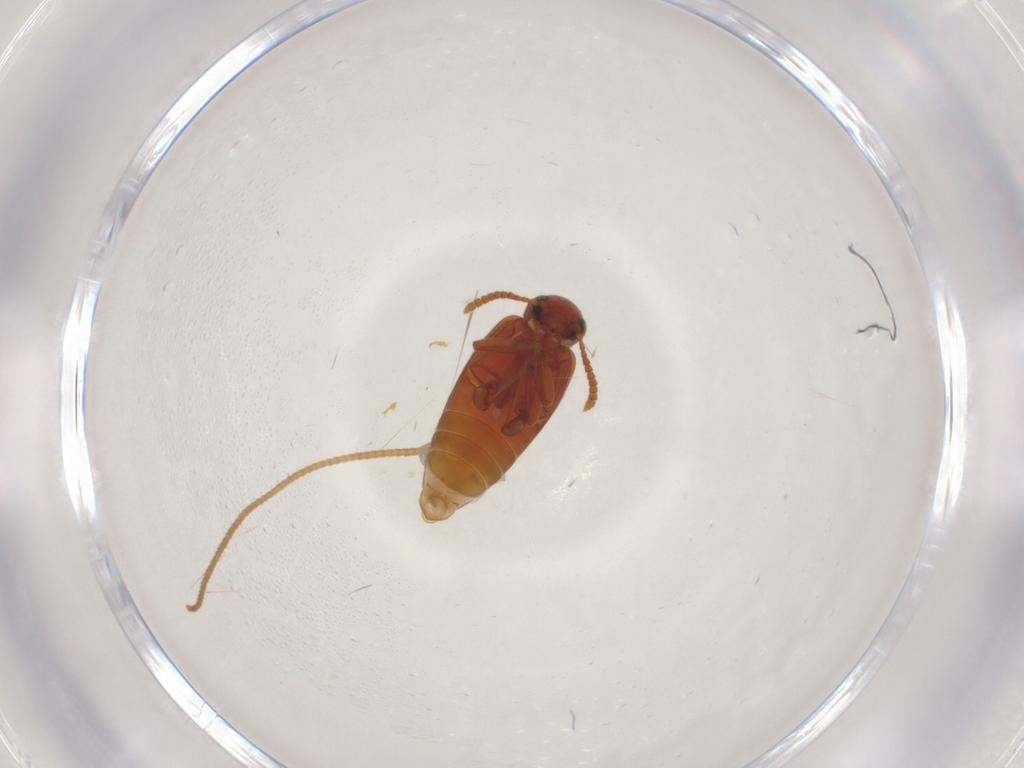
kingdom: Animalia
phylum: Arthropoda
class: Insecta
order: Coleoptera
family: Aderidae
